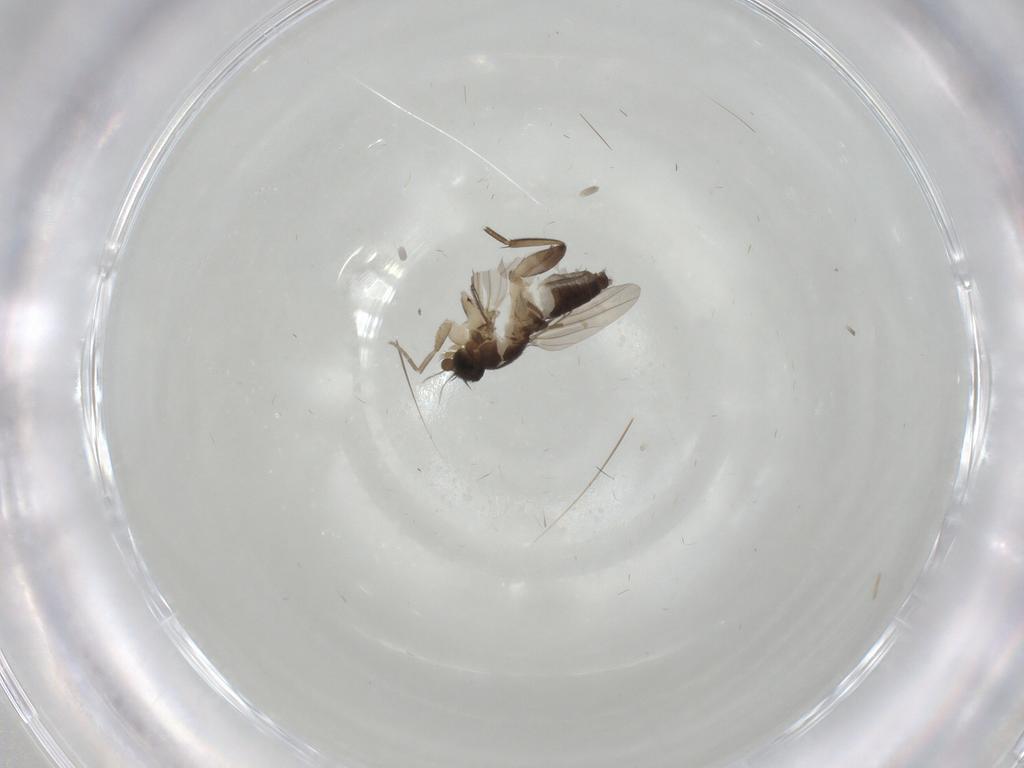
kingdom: Animalia
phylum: Arthropoda
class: Insecta
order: Diptera
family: Phoridae
